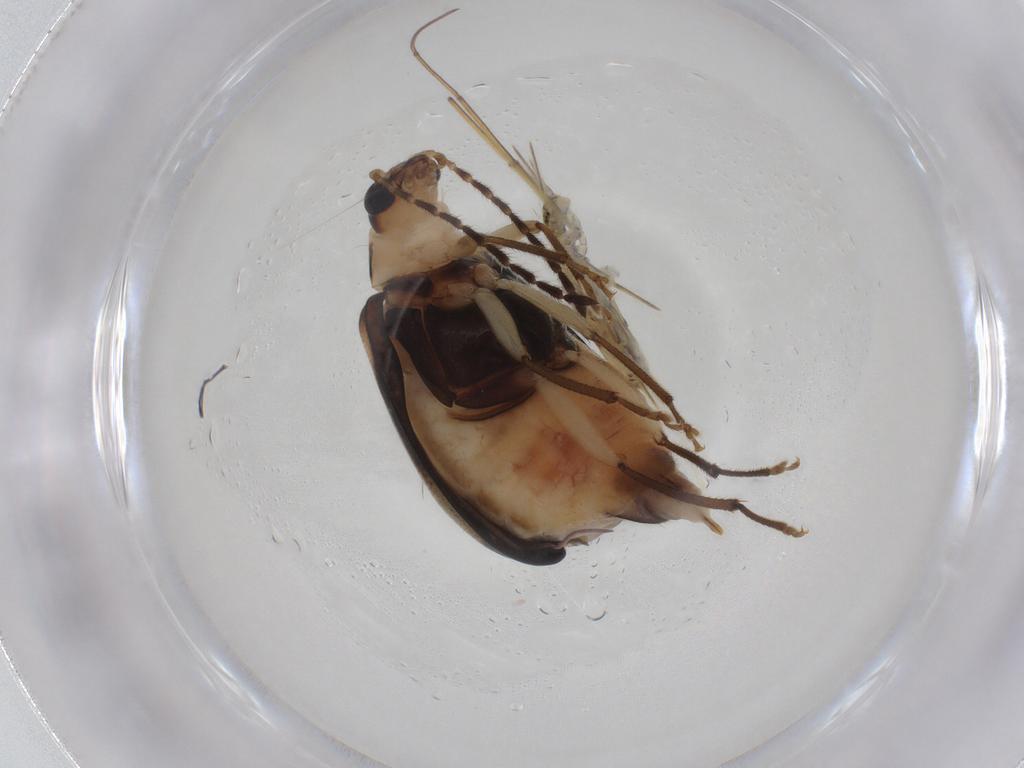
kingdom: Animalia
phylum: Arthropoda
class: Insecta
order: Coleoptera
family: Chrysomelidae
